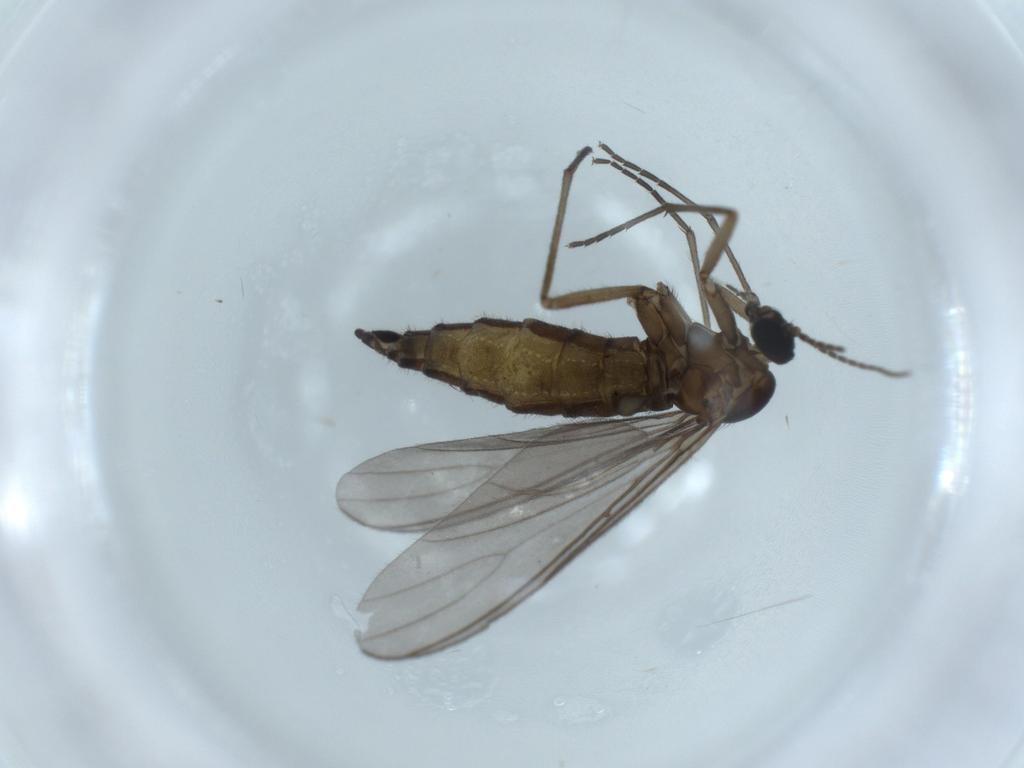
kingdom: Animalia
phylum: Arthropoda
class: Insecta
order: Diptera
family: Sciaridae
